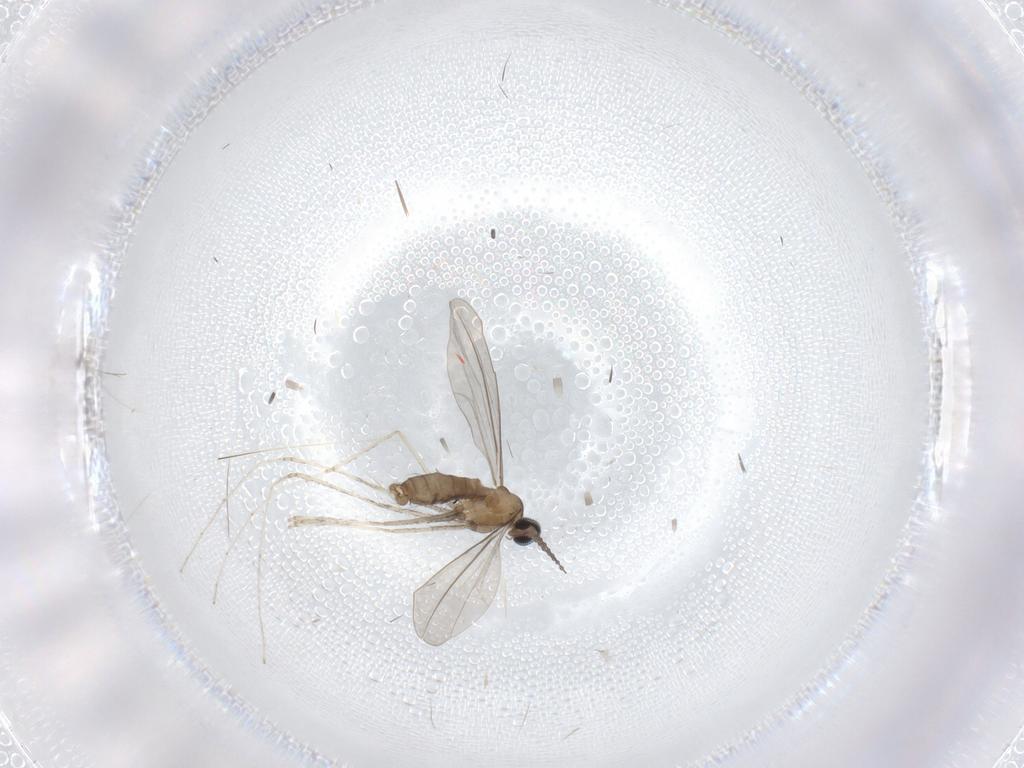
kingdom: Animalia
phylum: Arthropoda
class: Insecta
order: Diptera
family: Cecidomyiidae
